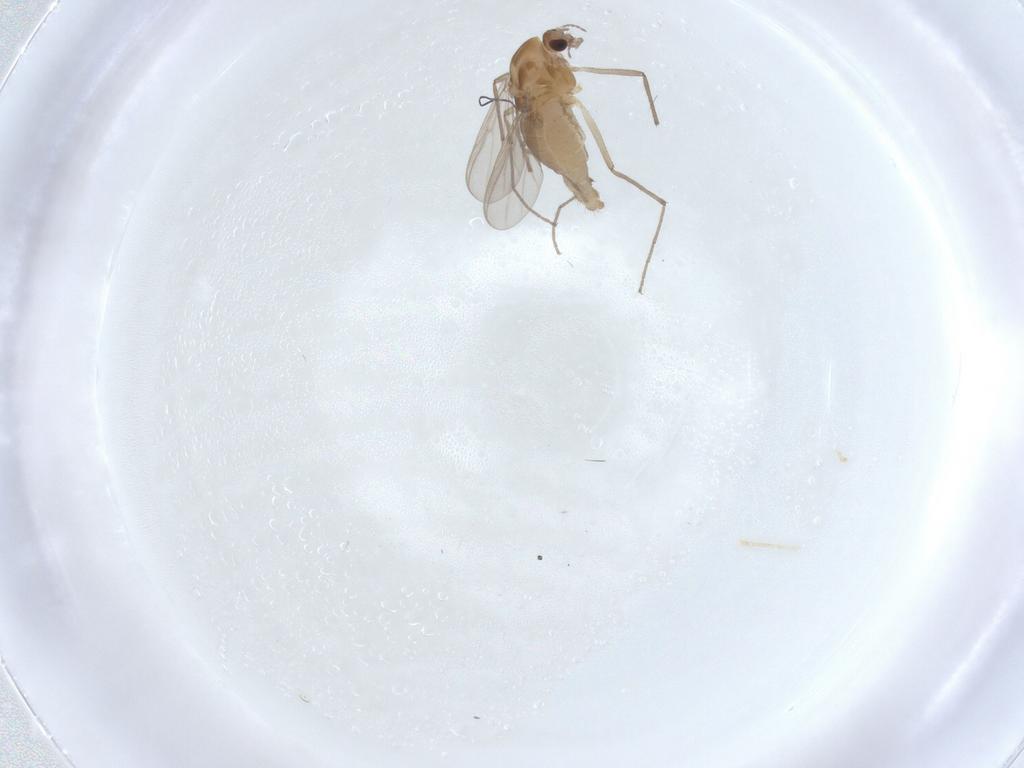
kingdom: Animalia
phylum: Arthropoda
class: Insecta
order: Diptera
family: Chironomidae
